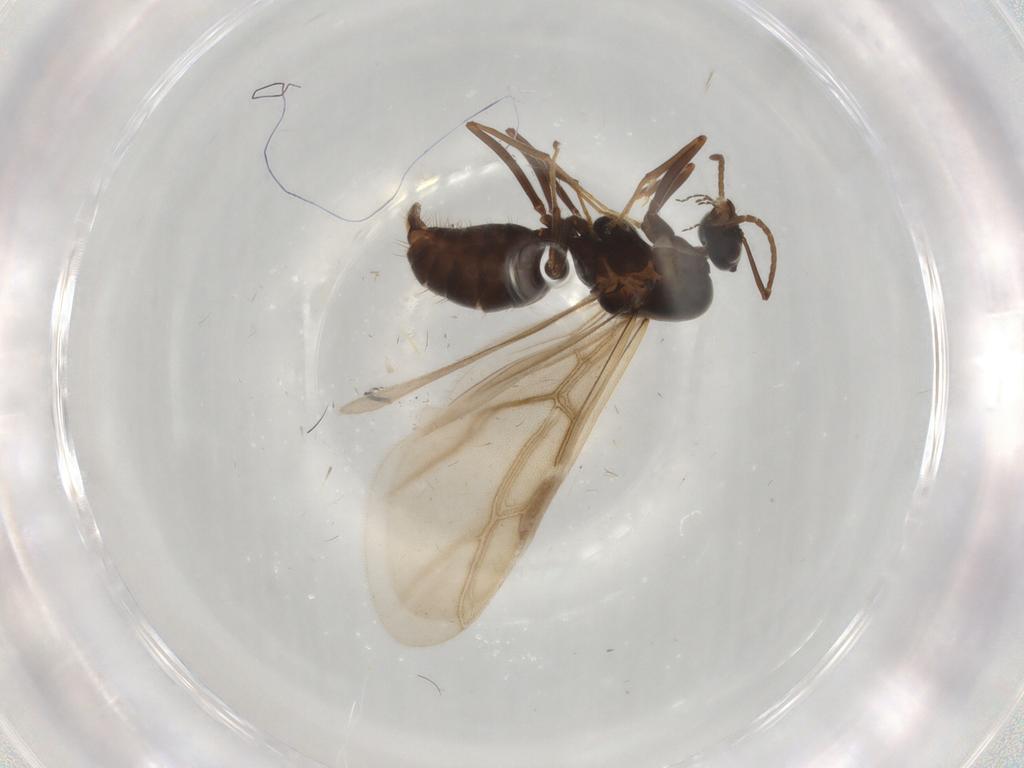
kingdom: Animalia
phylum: Arthropoda
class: Insecta
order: Hymenoptera
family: Formicidae
